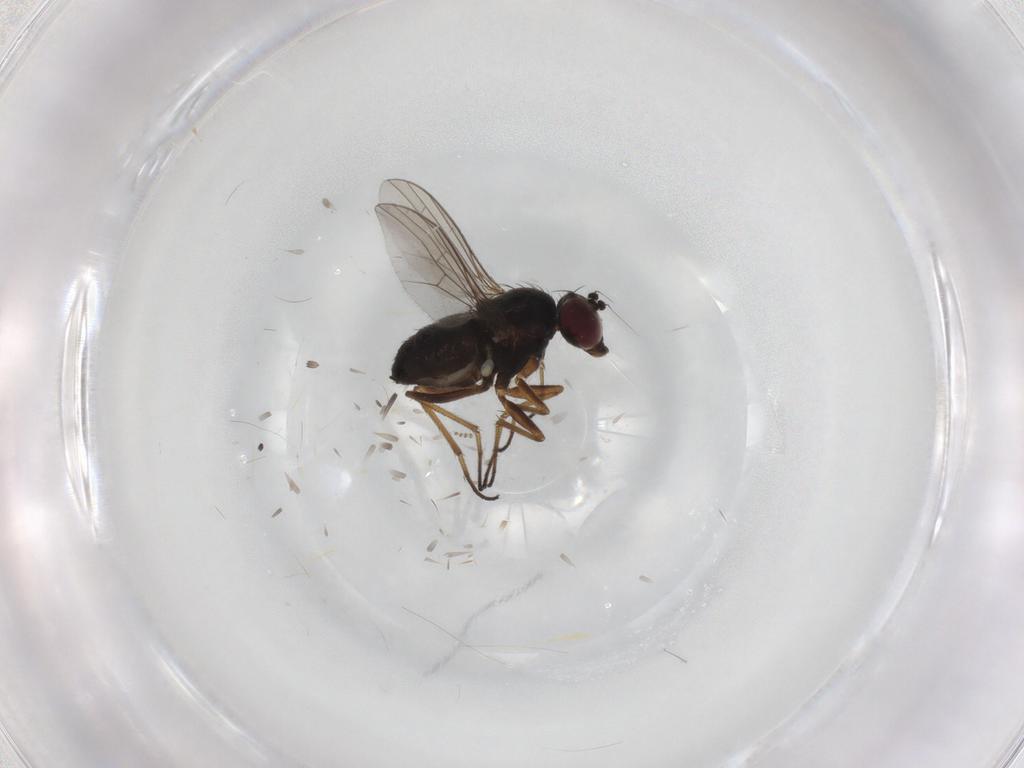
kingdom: Animalia
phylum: Arthropoda
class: Insecta
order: Diptera
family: Dolichopodidae
